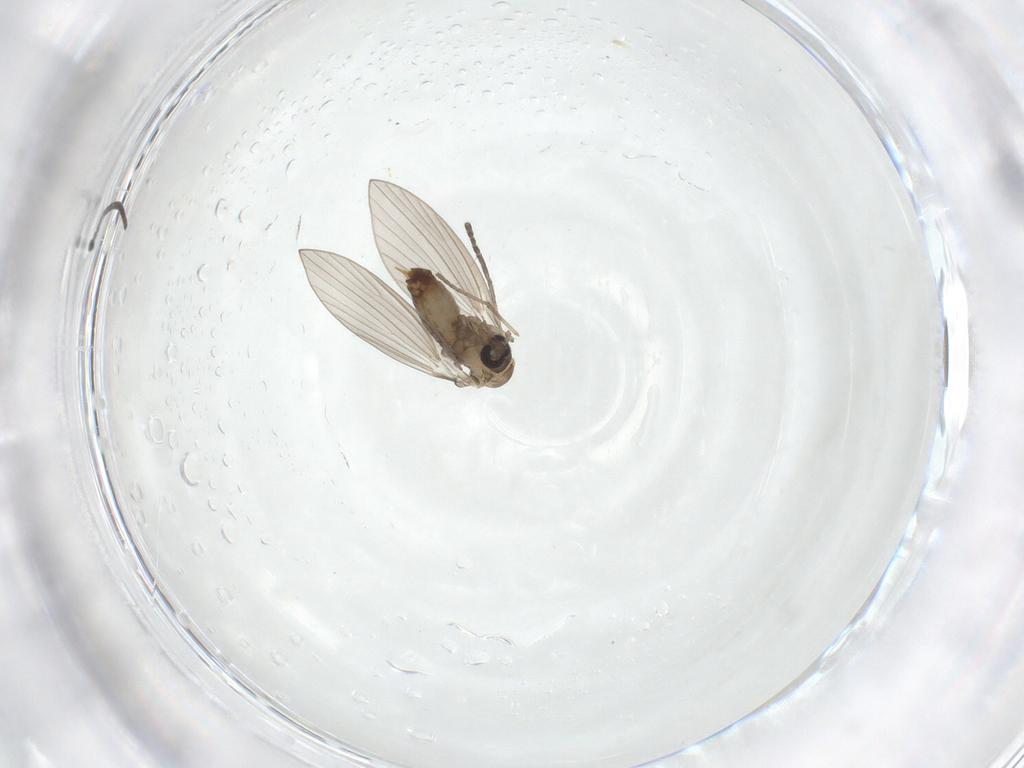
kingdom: Animalia
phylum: Arthropoda
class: Insecta
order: Diptera
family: Psychodidae
